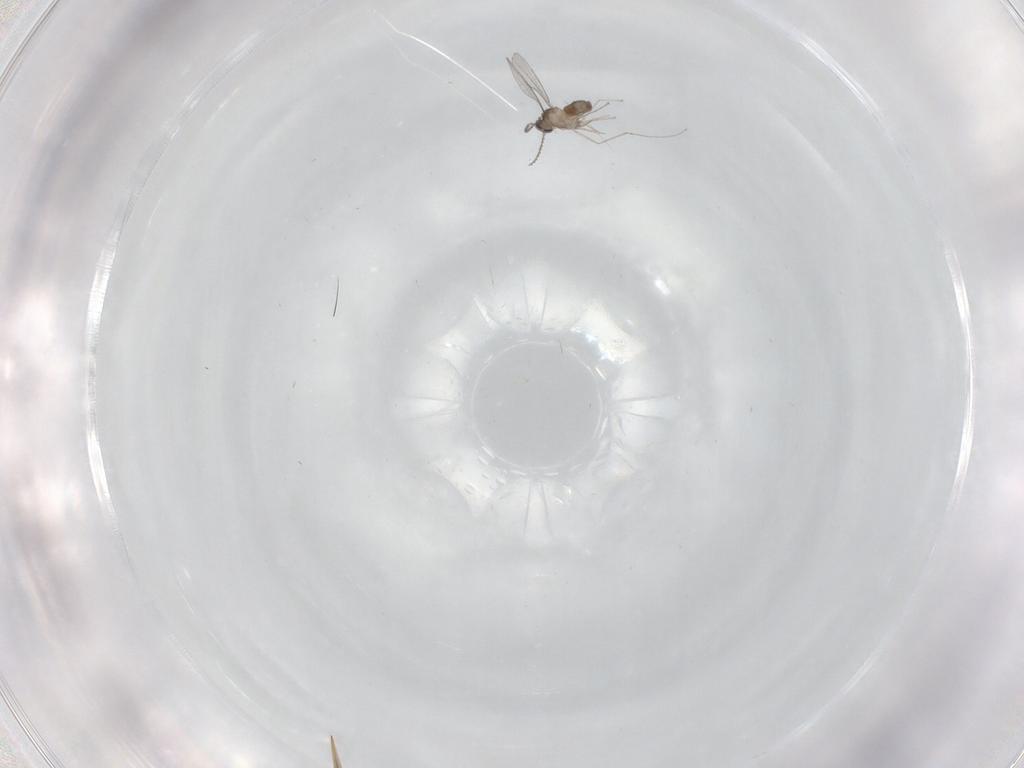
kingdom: Animalia
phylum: Arthropoda
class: Insecta
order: Diptera
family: Cecidomyiidae
